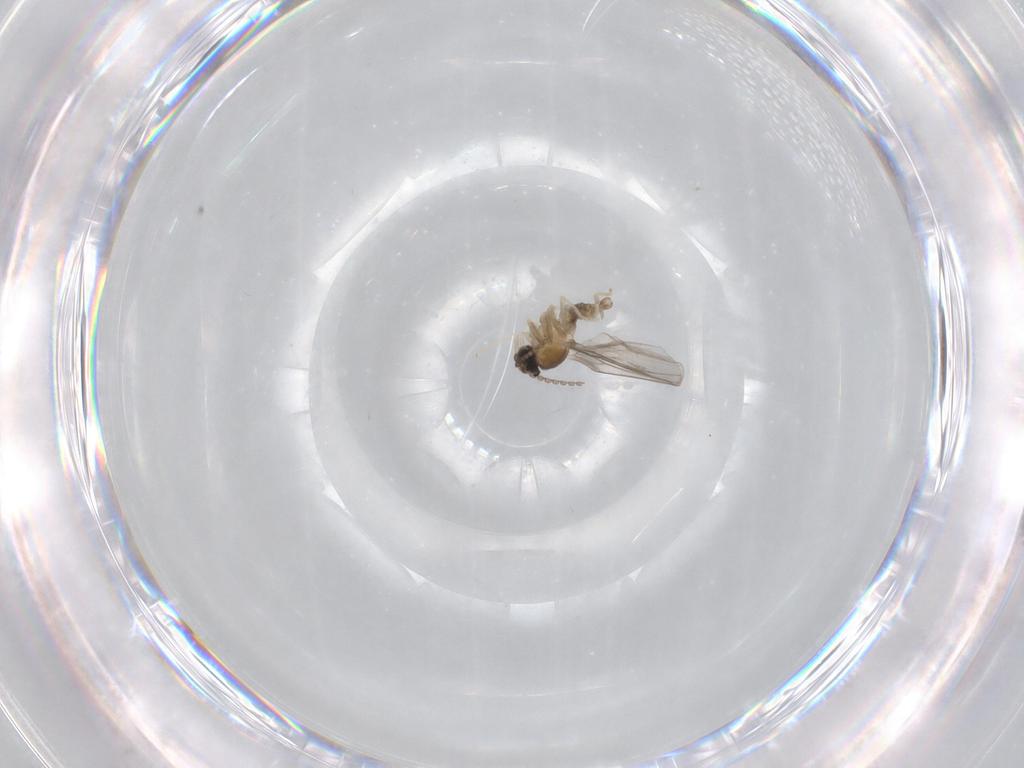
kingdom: Animalia
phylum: Arthropoda
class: Insecta
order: Diptera
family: Cecidomyiidae
